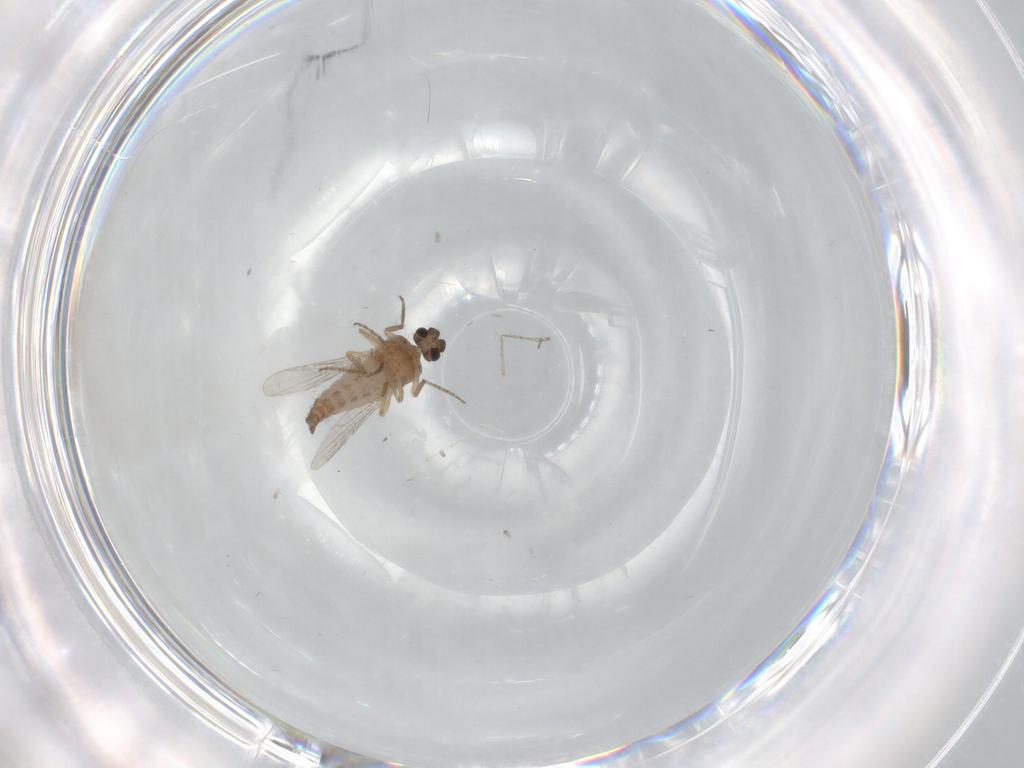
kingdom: Animalia
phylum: Arthropoda
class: Insecta
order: Diptera
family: Ceratopogonidae
